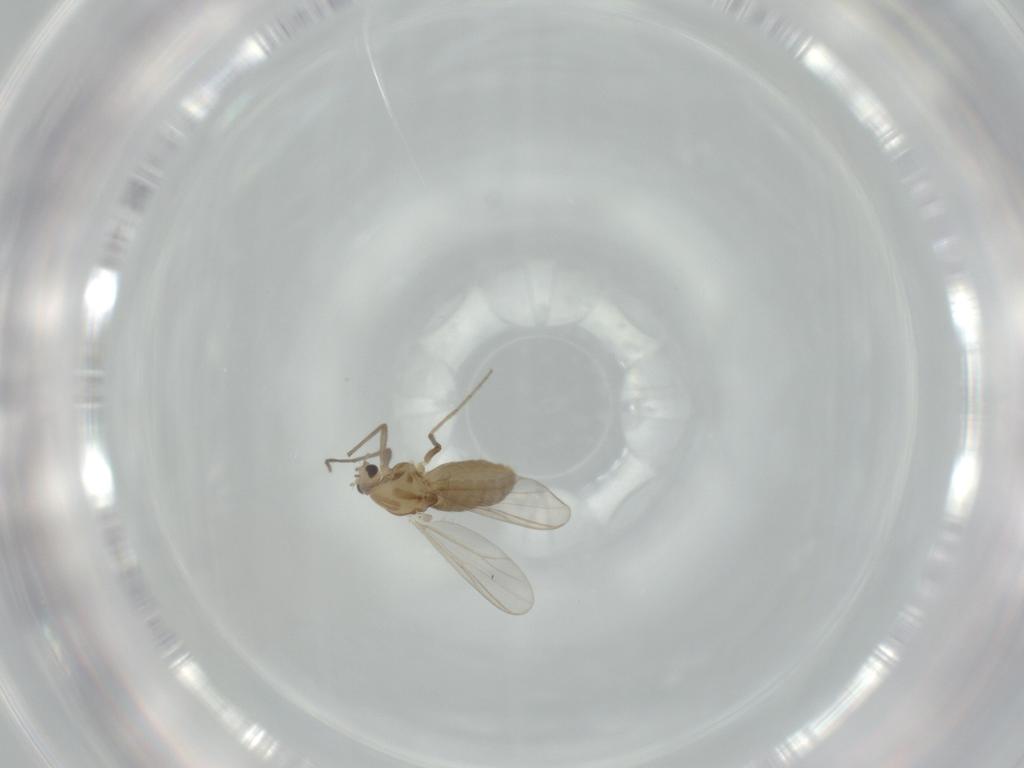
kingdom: Animalia
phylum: Arthropoda
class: Insecta
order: Diptera
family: Chironomidae
